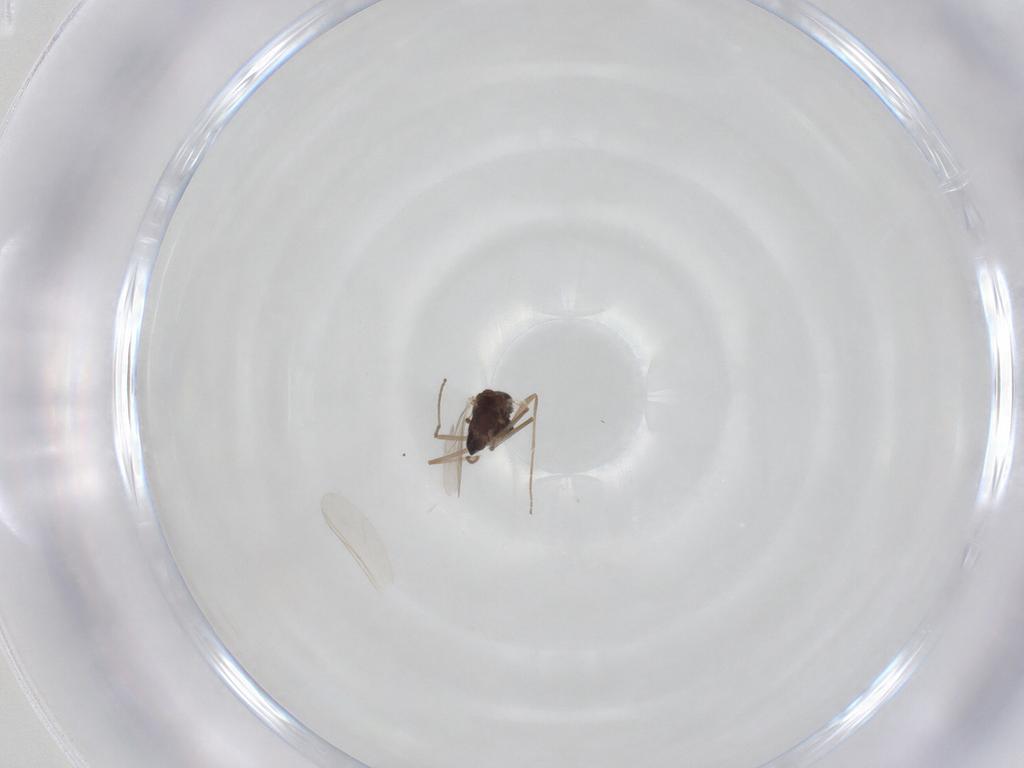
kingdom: Animalia
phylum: Arthropoda
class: Insecta
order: Diptera
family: Chironomidae
